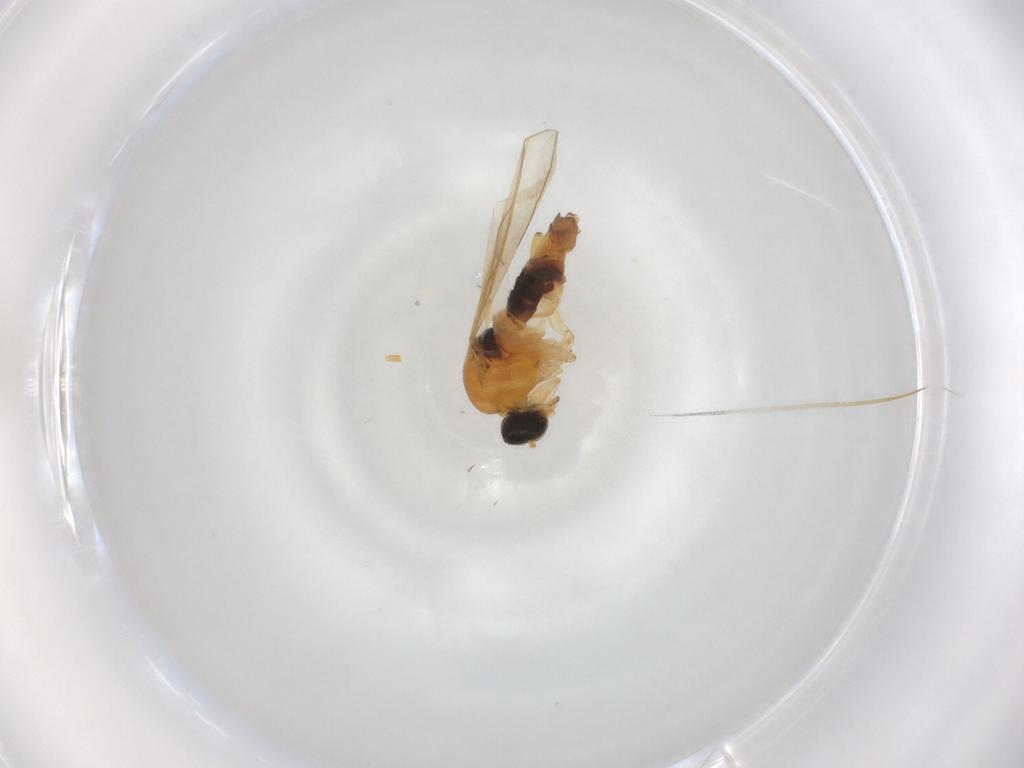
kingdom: Animalia
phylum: Arthropoda
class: Insecta
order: Diptera
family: Hybotidae
